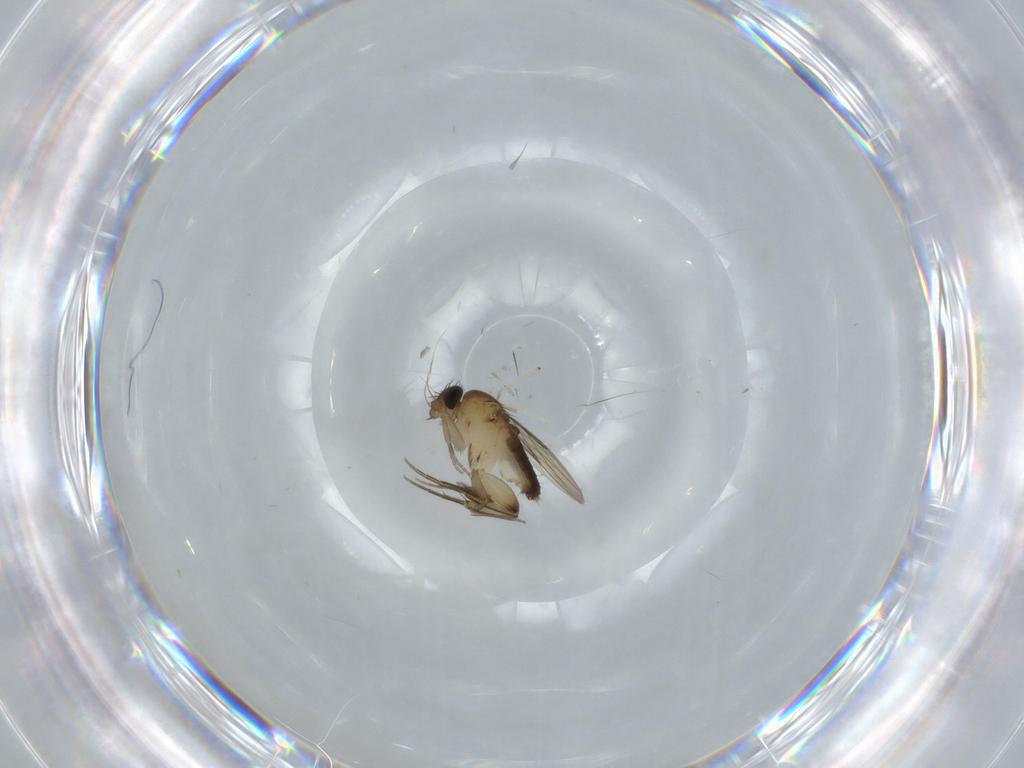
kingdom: Animalia
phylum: Arthropoda
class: Insecta
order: Diptera
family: Phoridae
